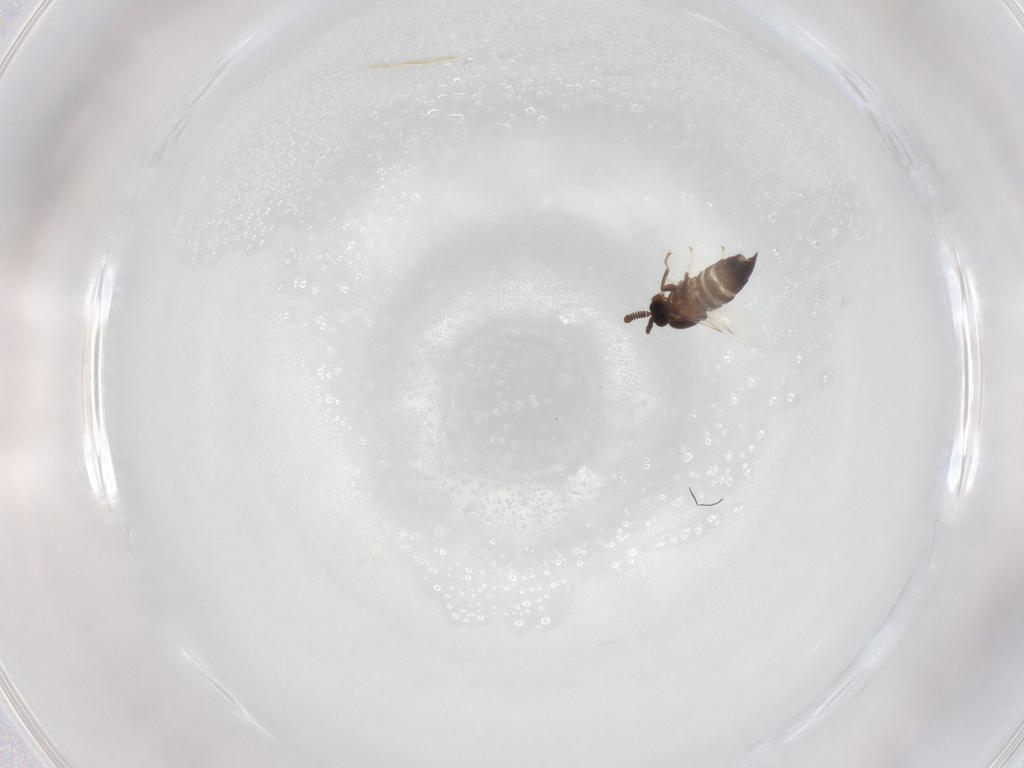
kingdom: Animalia
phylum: Arthropoda
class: Insecta
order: Diptera
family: Scatopsidae
